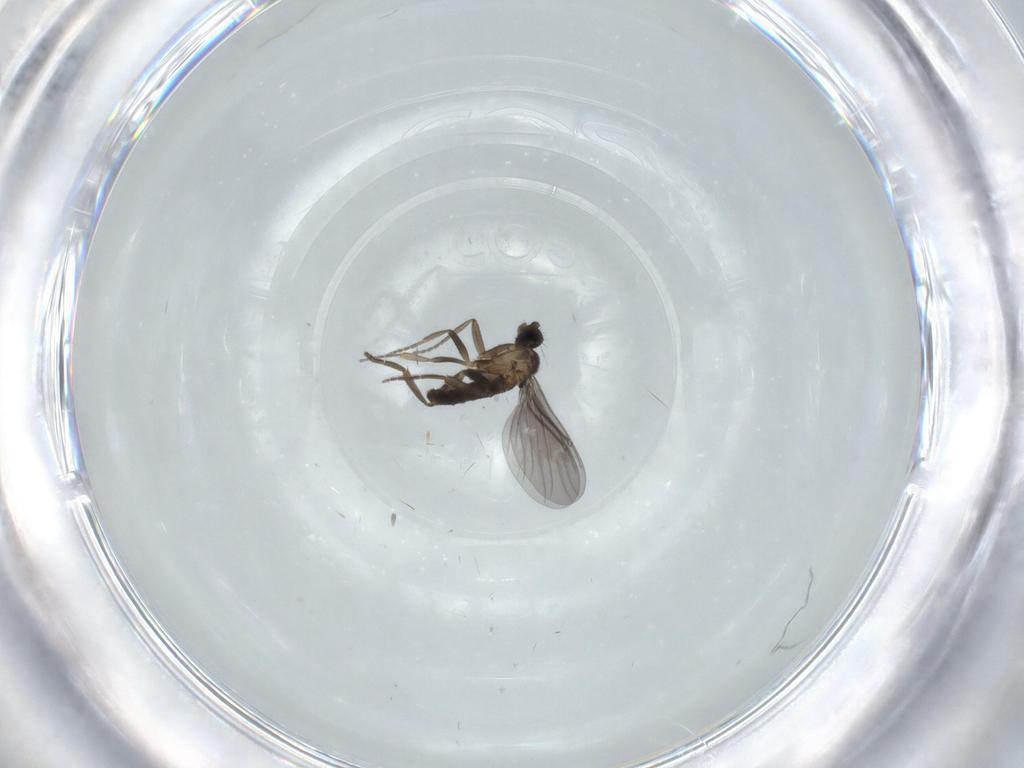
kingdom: Animalia
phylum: Arthropoda
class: Insecta
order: Diptera
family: Phoridae
